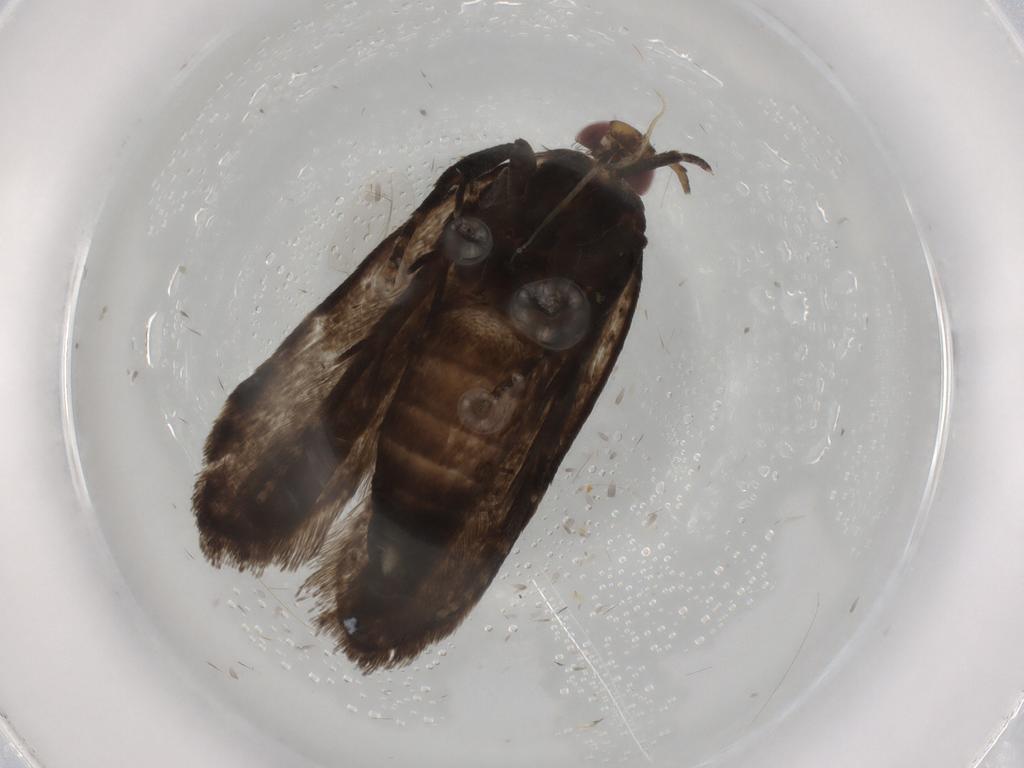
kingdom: Animalia
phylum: Arthropoda
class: Insecta
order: Lepidoptera
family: Gelechiidae
